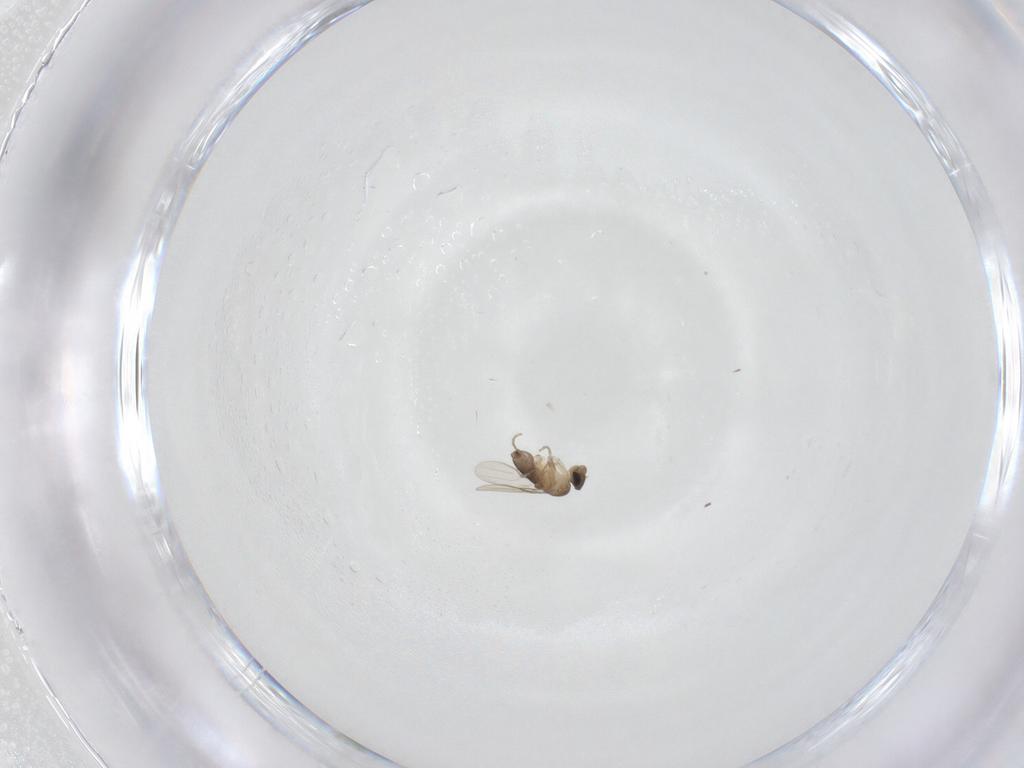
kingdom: Animalia
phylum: Arthropoda
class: Insecta
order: Diptera
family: Phoridae
